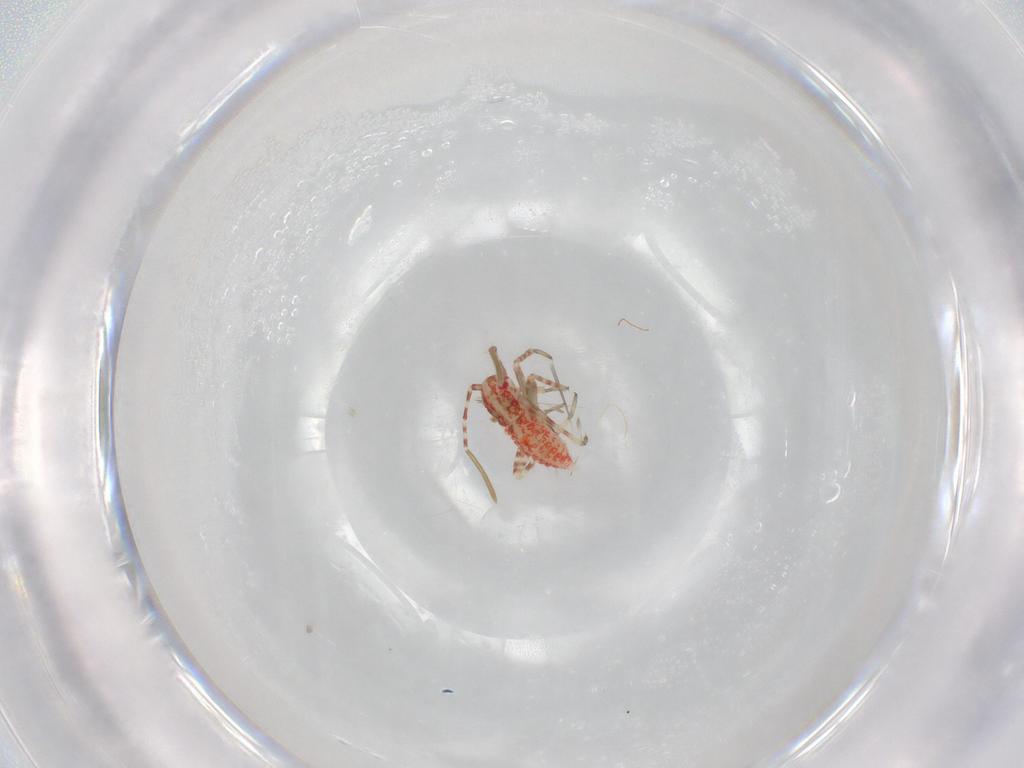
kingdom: Animalia
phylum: Arthropoda
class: Insecta
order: Hemiptera
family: Miridae
